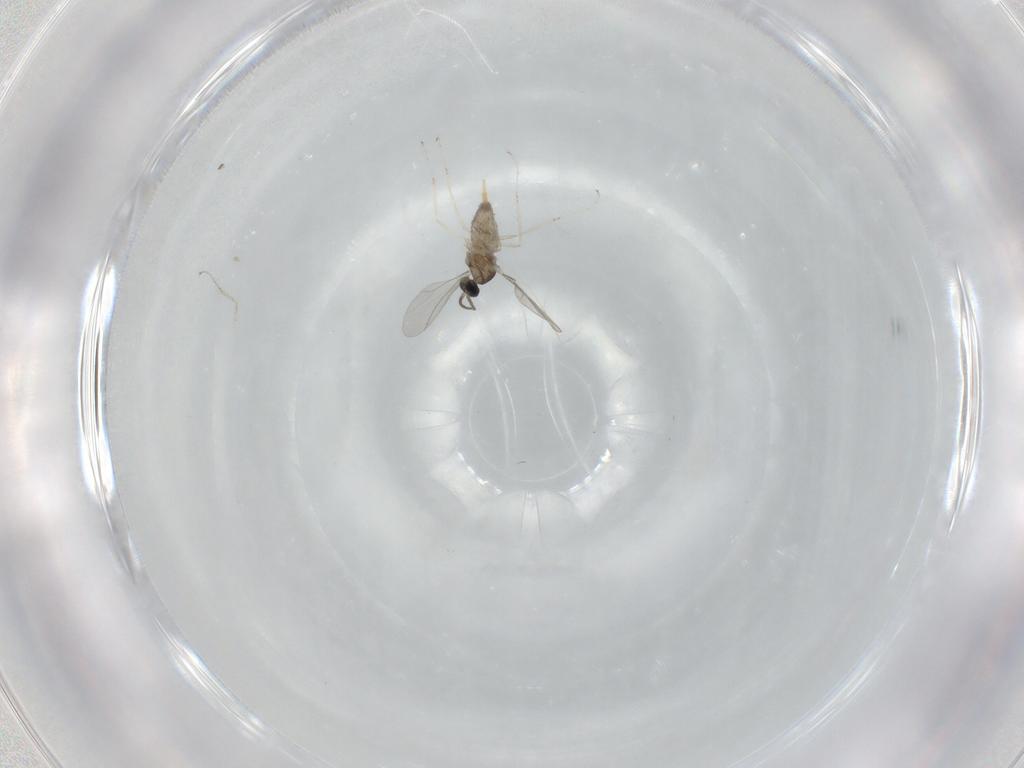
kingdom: Animalia
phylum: Arthropoda
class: Insecta
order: Diptera
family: Cecidomyiidae
